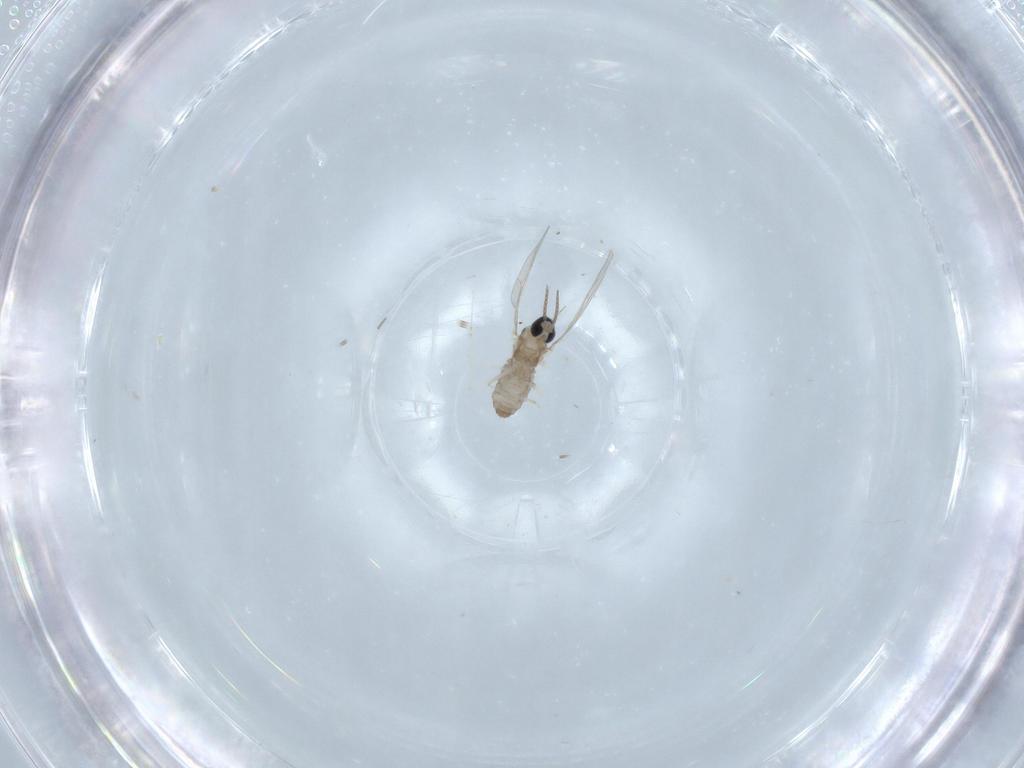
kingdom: Animalia
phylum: Arthropoda
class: Insecta
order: Diptera
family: Cecidomyiidae
